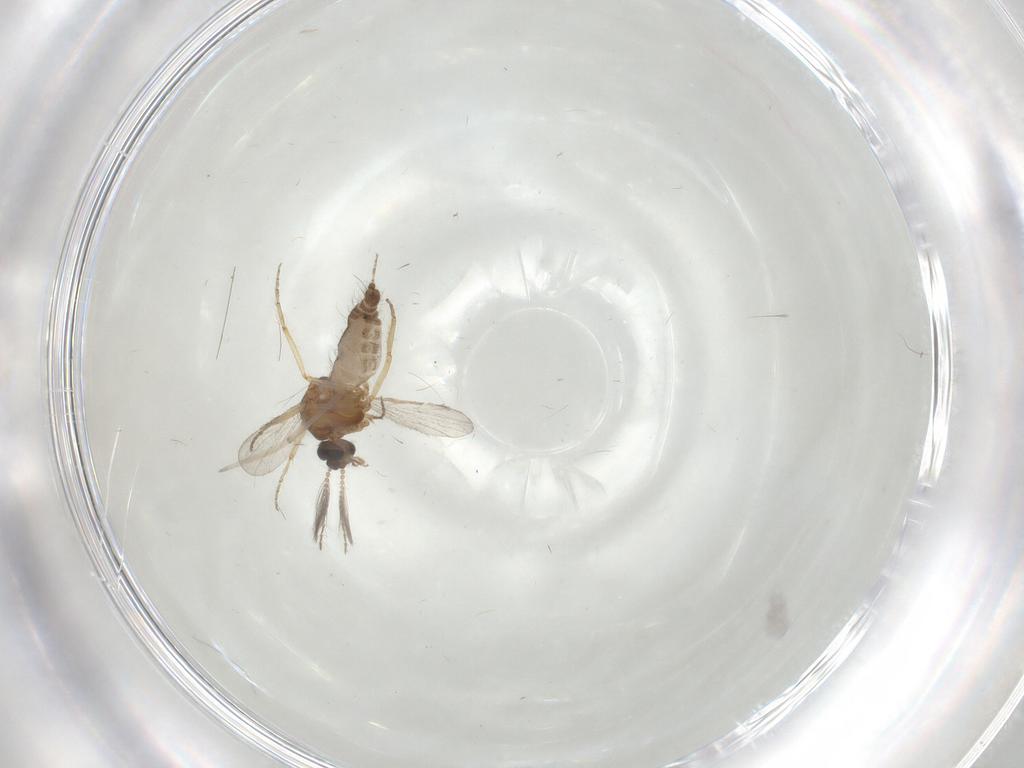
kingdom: Animalia
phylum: Arthropoda
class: Insecta
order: Diptera
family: Ceratopogonidae
